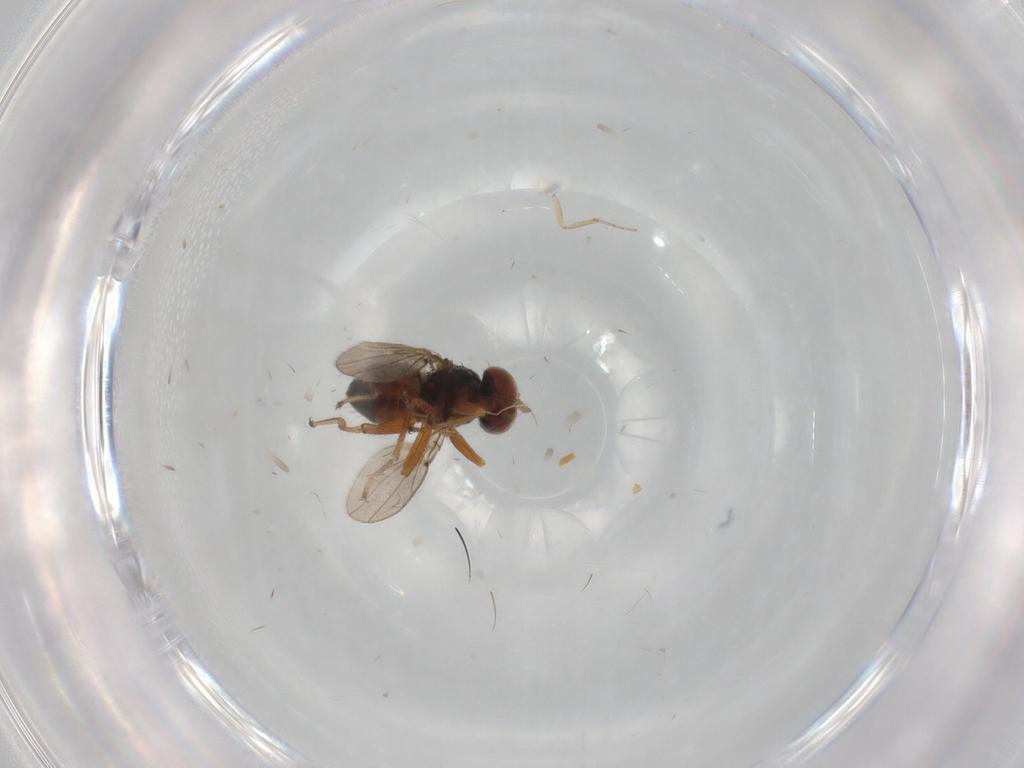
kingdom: Animalia
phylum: Arthropoda
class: Insecta
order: Diptera
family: Ephydridae
